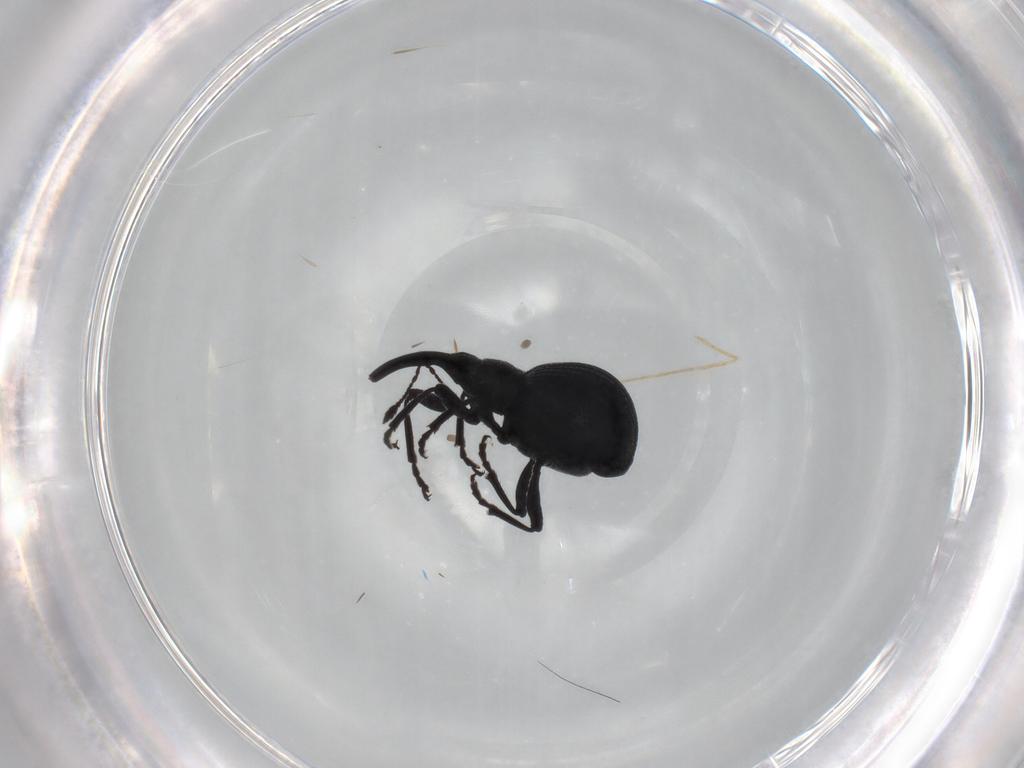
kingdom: Animalia
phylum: Arthropoda
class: Insecta
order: Coleoptera
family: Brentidae
